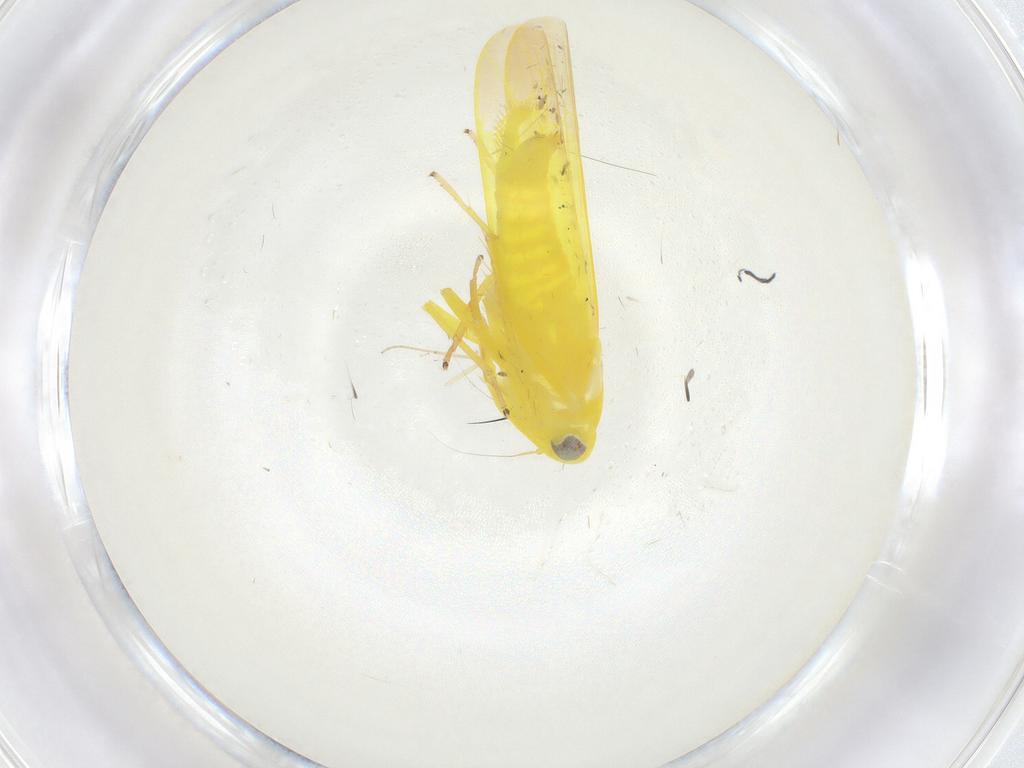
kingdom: Animalia
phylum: Arthropoda
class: Insecta
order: Hemiptera
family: Cicadellidae
